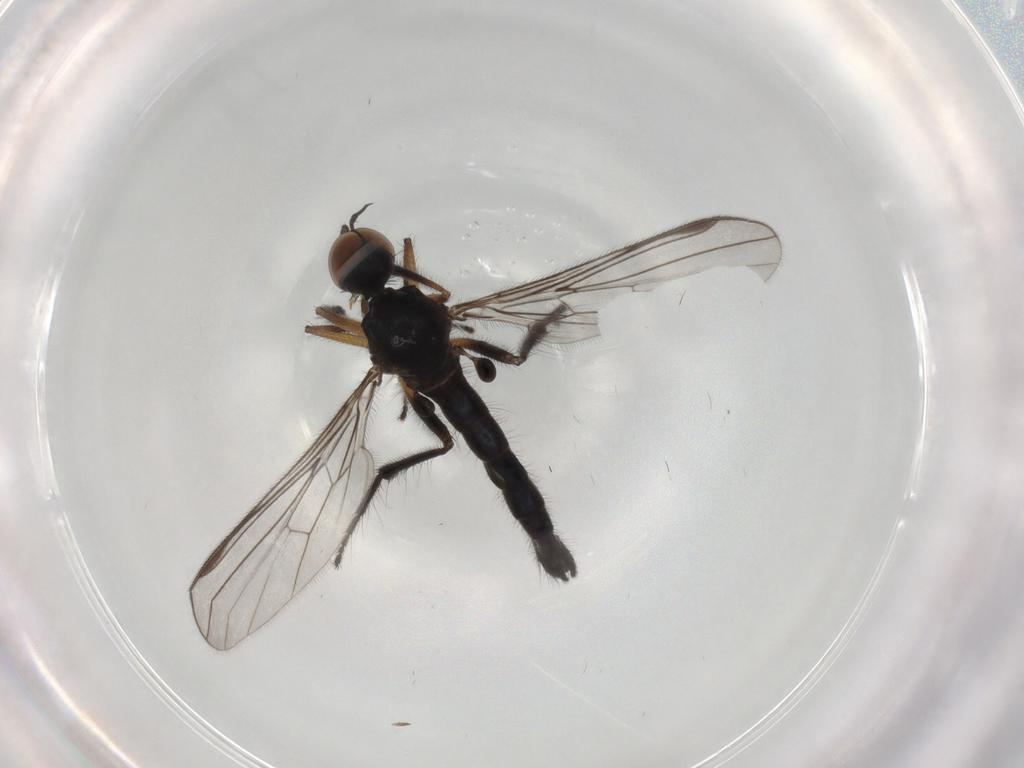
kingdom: Animalia
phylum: Arthropoda
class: Insecta
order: Diptera
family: Empididae
